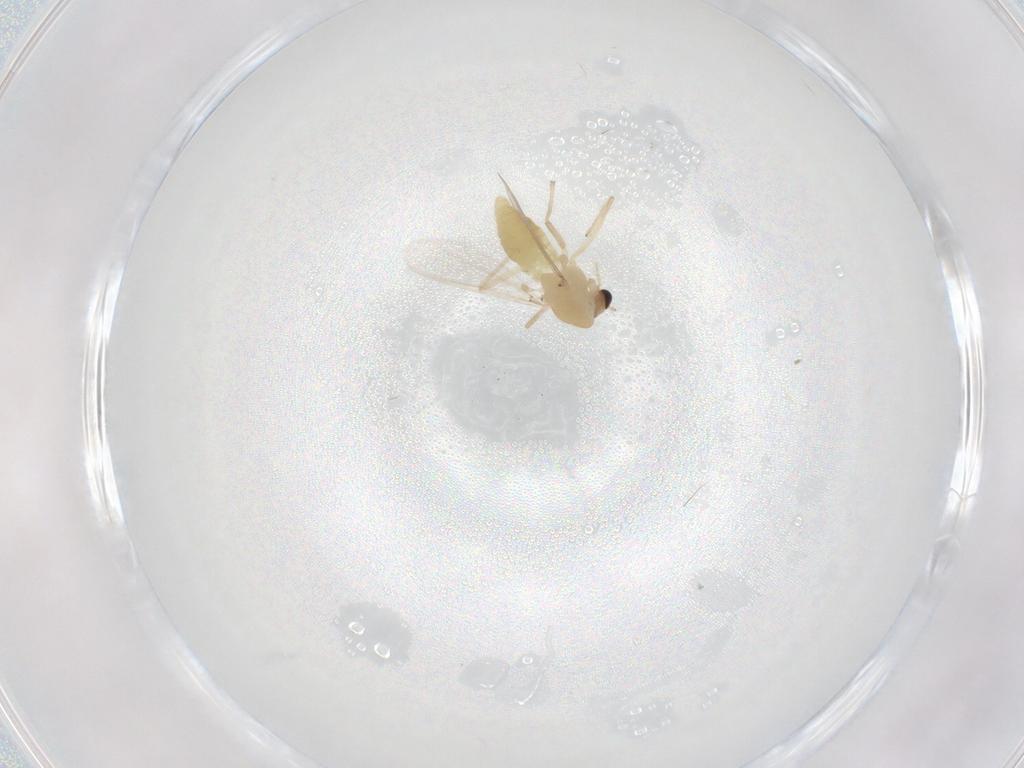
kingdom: Animalia
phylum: Arthropoda
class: Insecta
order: Diptera
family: Chironomidae
